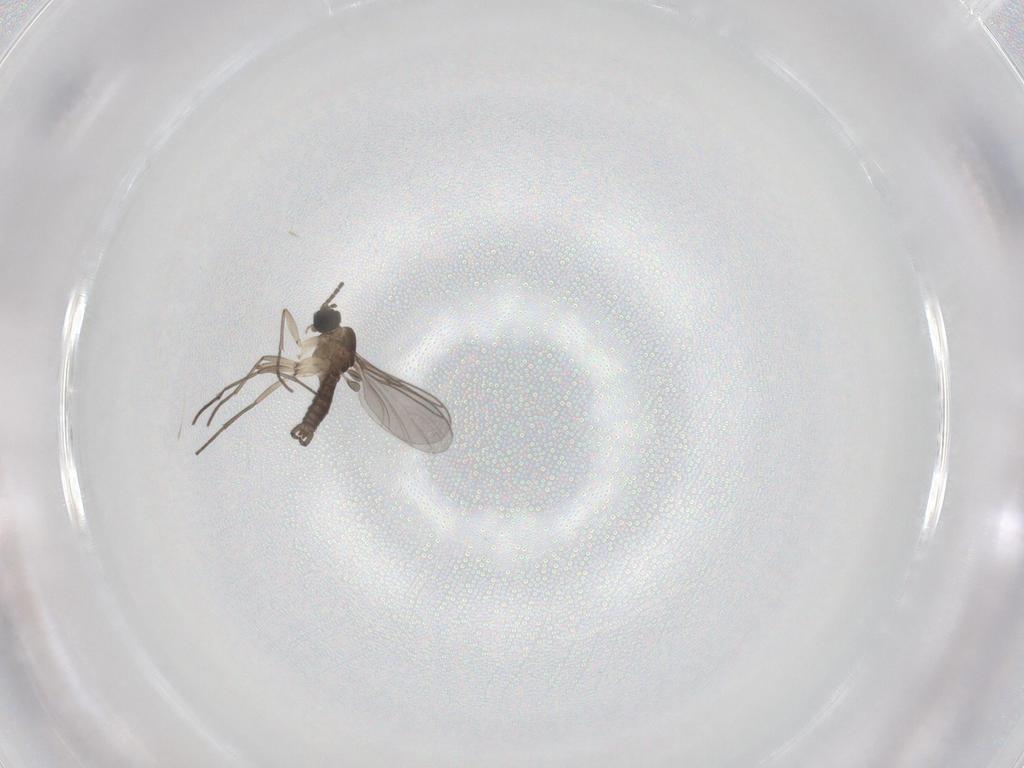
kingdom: Animalia
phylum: Arthropoda
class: Insecta
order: Diptera
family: Sciaridae
